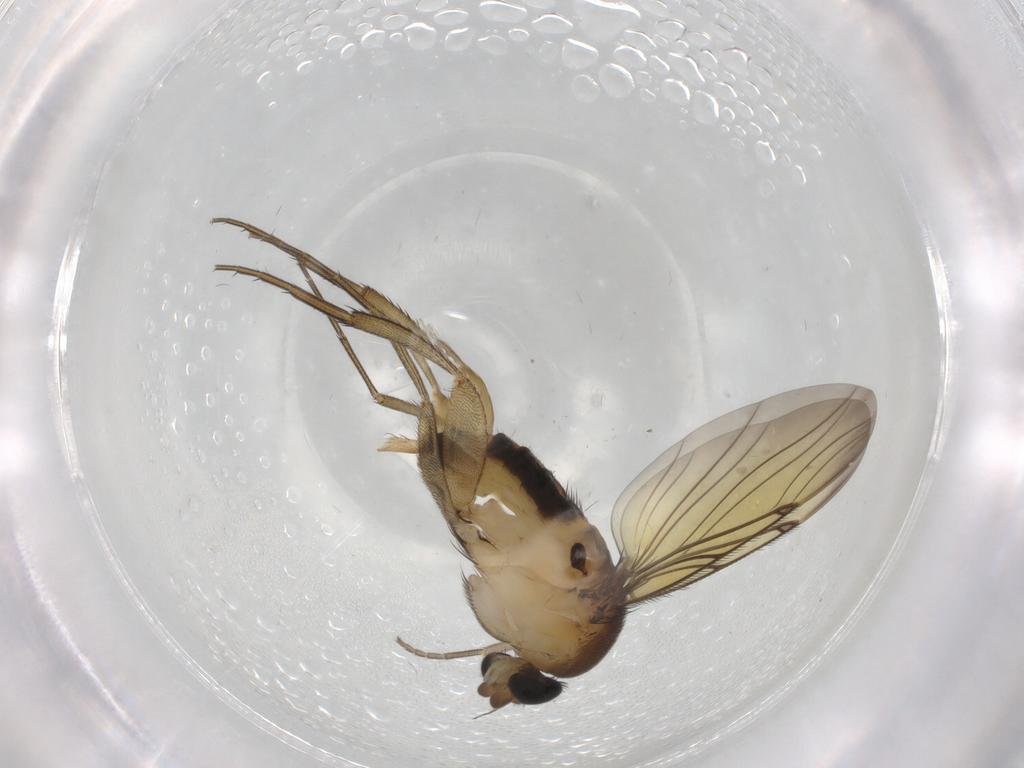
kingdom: Animalia
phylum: Arthropoda
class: Insecta
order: Diptera
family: Phoridae
